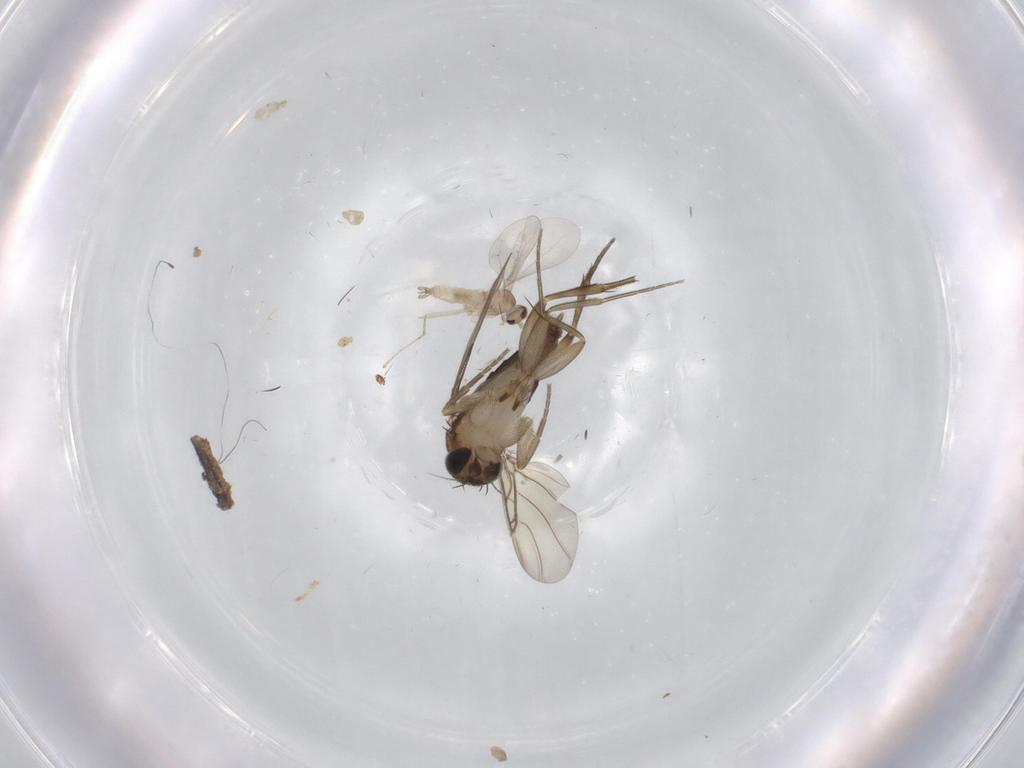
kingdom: Animalia
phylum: Arthropoda
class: Insecta
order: Diptera
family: Phoridae
